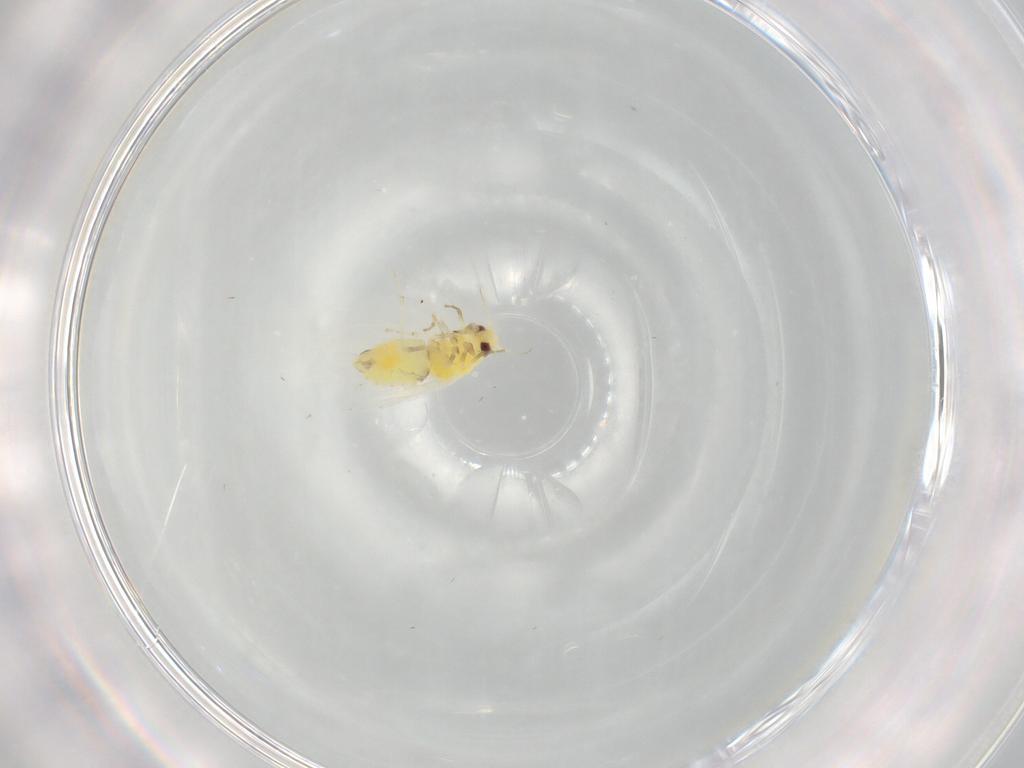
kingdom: Animalia
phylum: Arthropoda
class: Insecta
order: Hemiptera
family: Aleyrodidae
